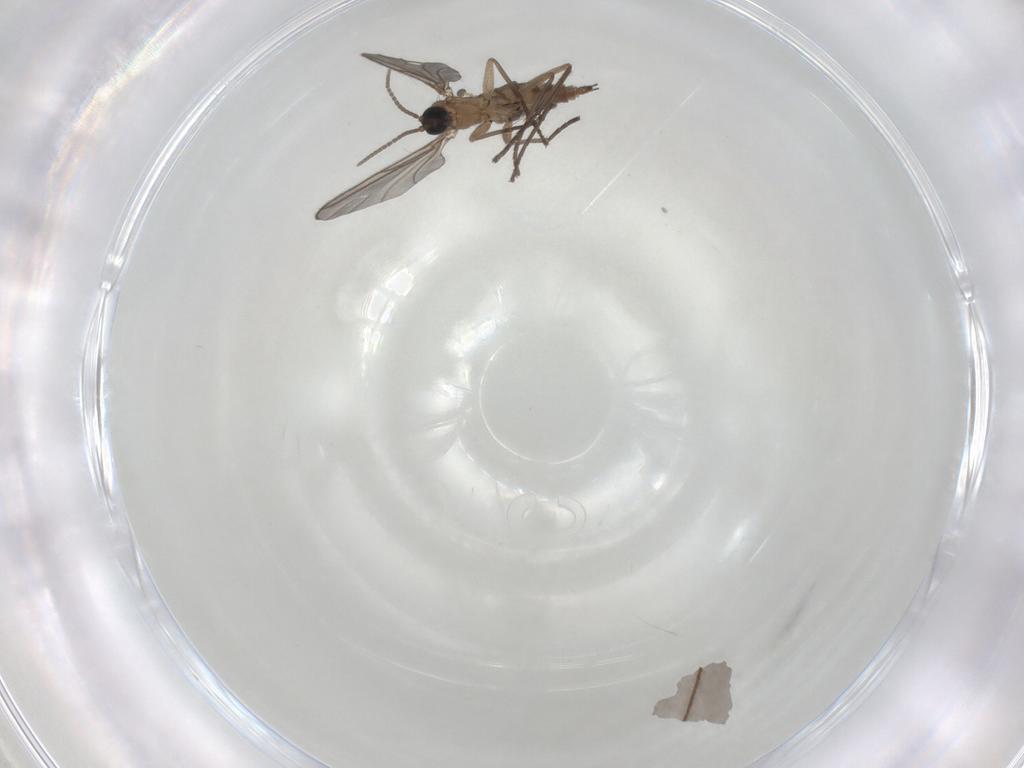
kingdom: Animalia
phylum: Arthropoda
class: Insecta
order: Diptera
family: Sciaridae
